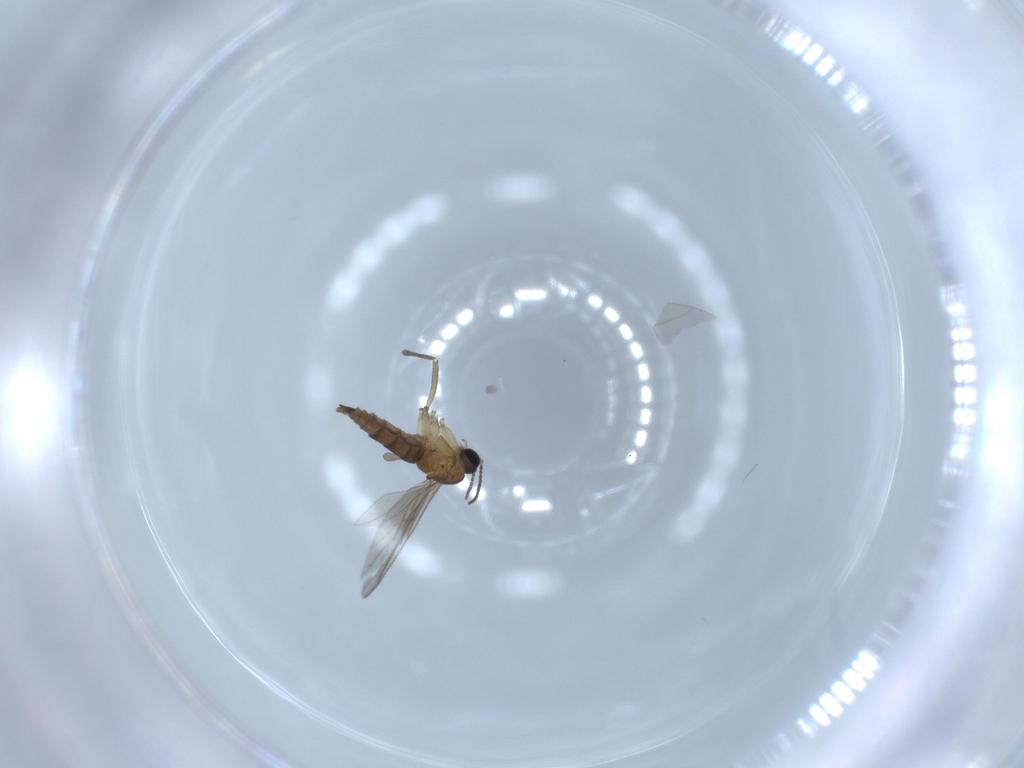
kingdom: Animalia
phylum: Arthropoda
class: Insecta
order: Diptera
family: Sciaridae
